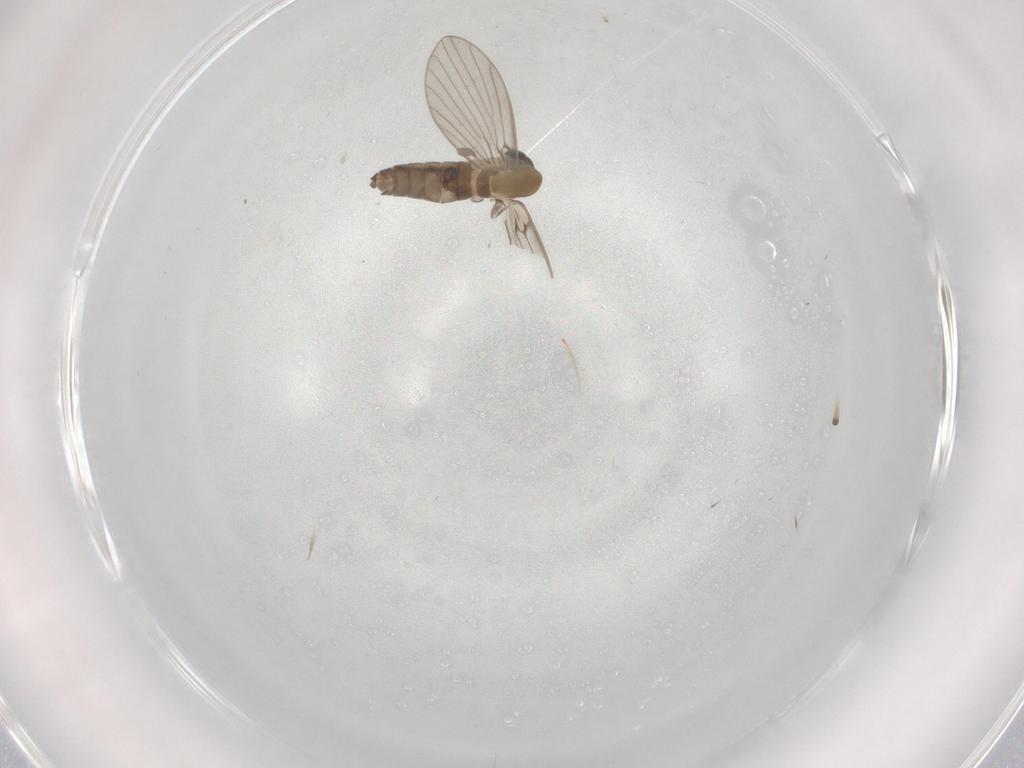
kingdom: Animalia
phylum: Arthropoda
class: Insecta
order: Diptera
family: Psychodidae
